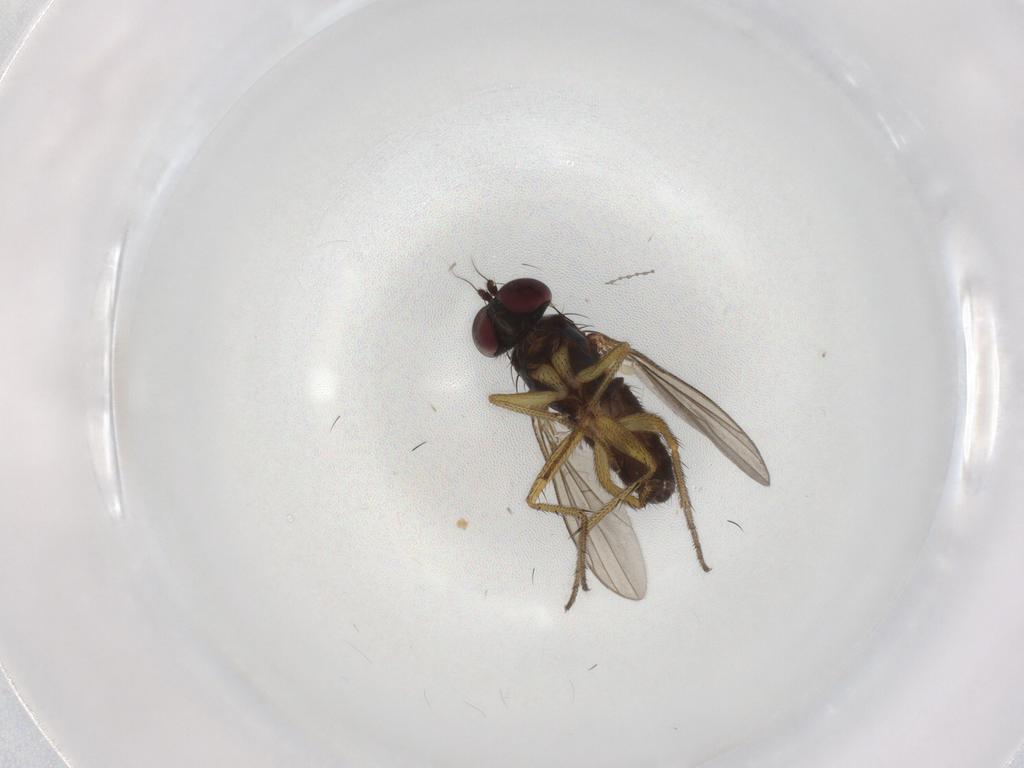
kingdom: Animalia
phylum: Arthropoda
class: Insecta
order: Diptera
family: Dolichopodidae
